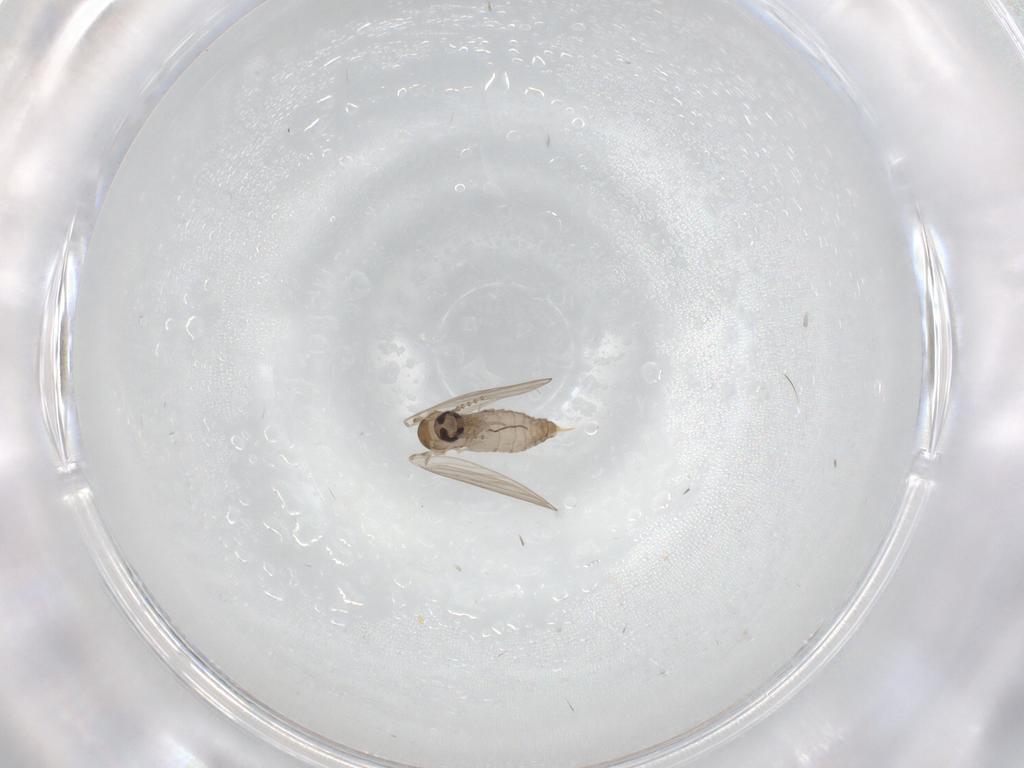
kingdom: Animalia
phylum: Arthropoda
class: Insecta
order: Diptera
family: Psychodidae
